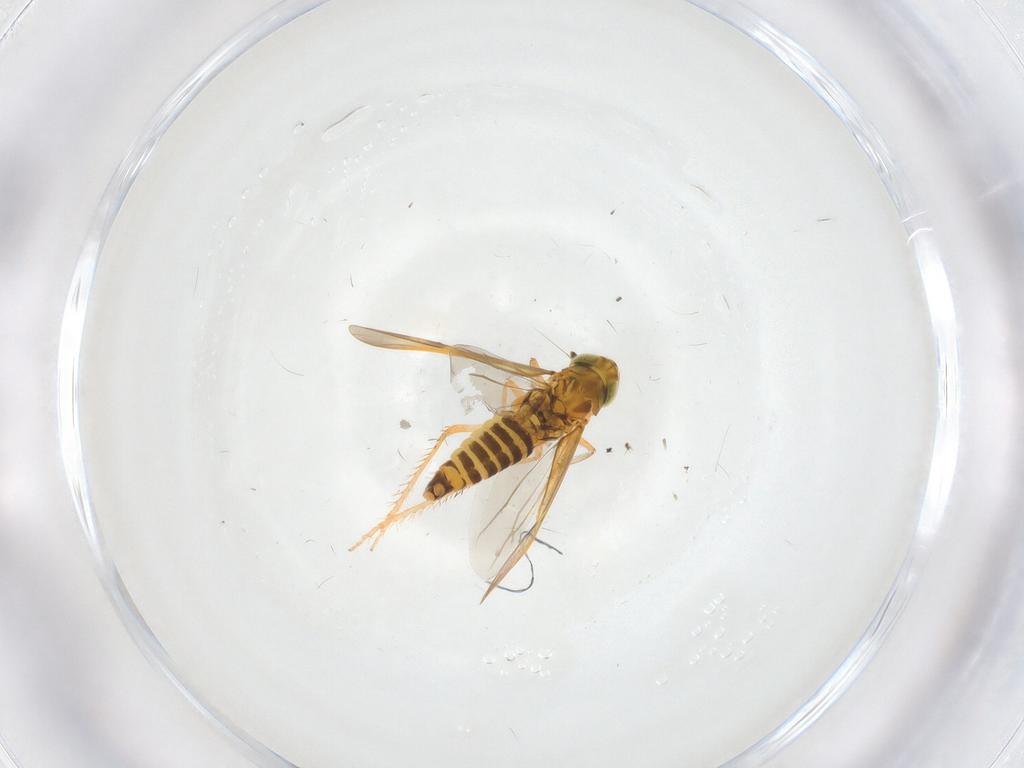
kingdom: Animalia
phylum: Arthropoda
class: Insecta
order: Hemiptera
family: Cicadellidae
